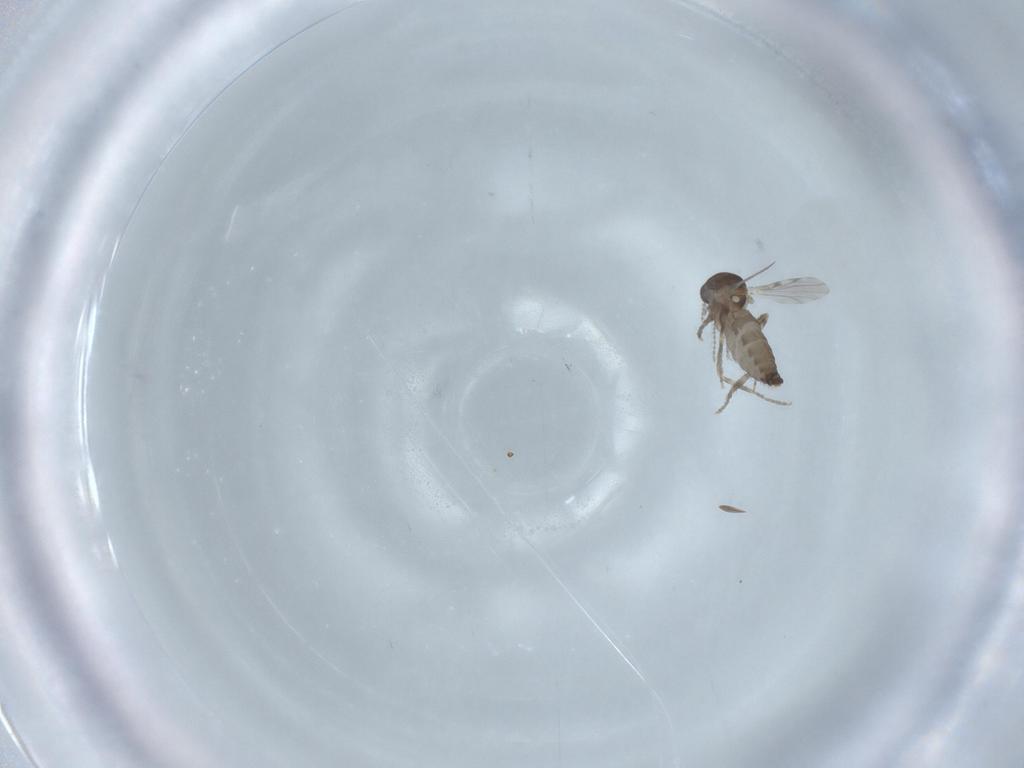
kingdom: Animalia
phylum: Arthropoda
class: Insecta
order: Diptera
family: Ceratopogonidae
